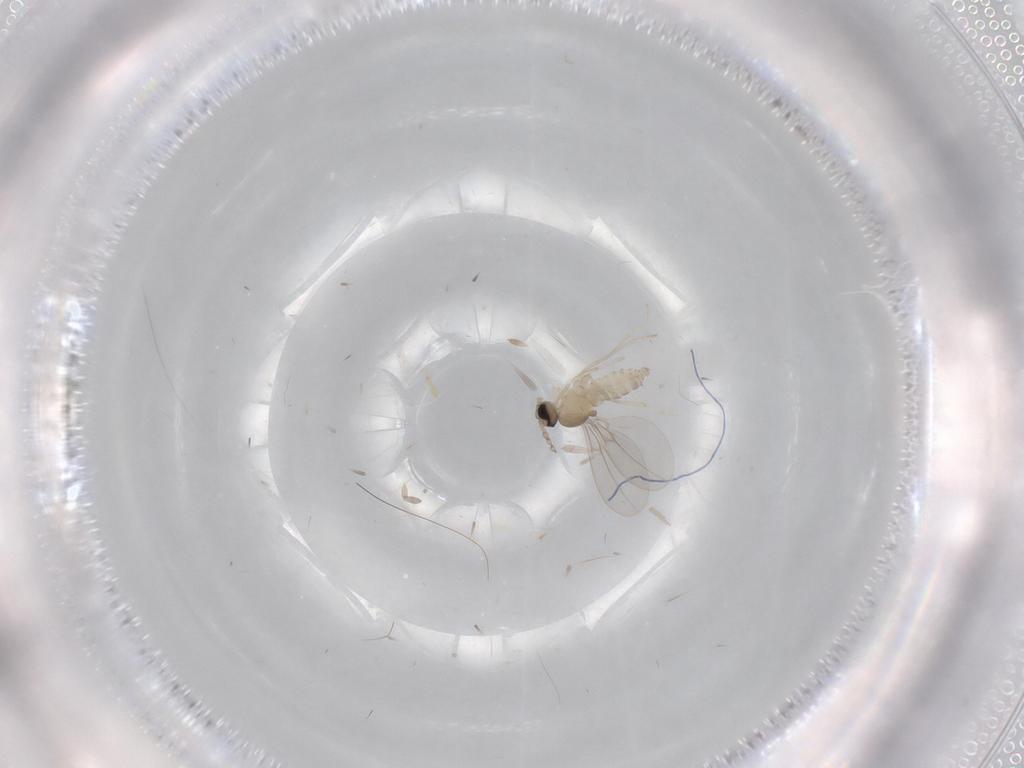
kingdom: Animalia
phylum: Arthropoda
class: Insecta
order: Diptera
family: Cecidomyiidae
